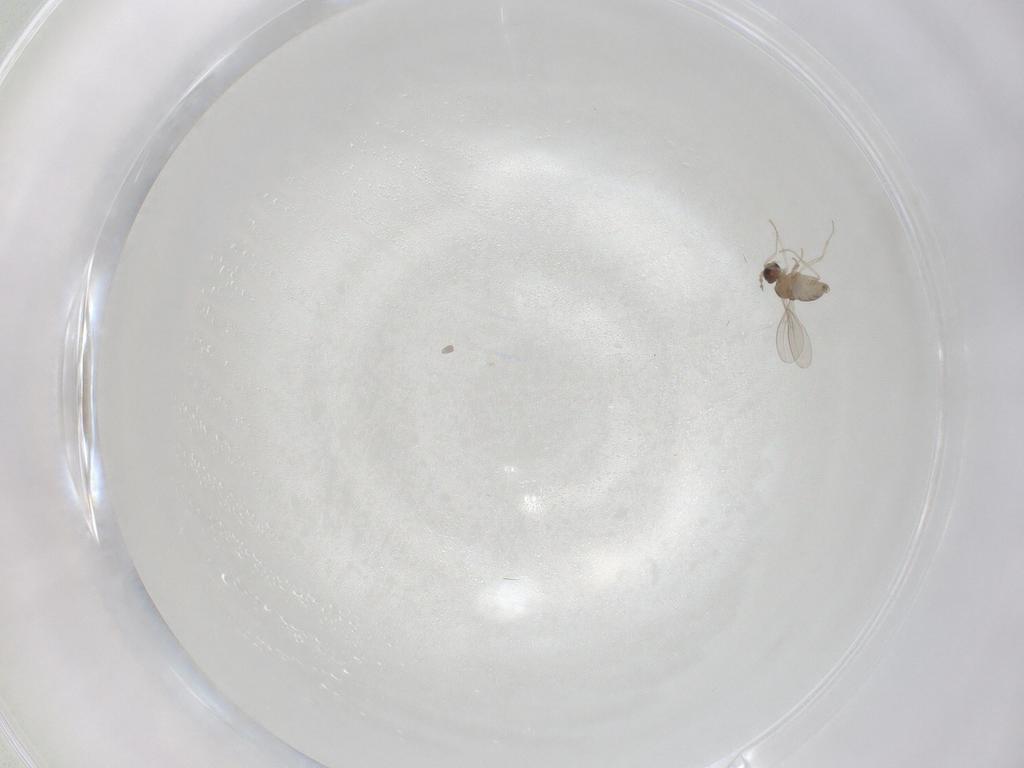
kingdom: Animalia
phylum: Arthropoda
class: Insecta
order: Diptera
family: Cecidomyiidae
